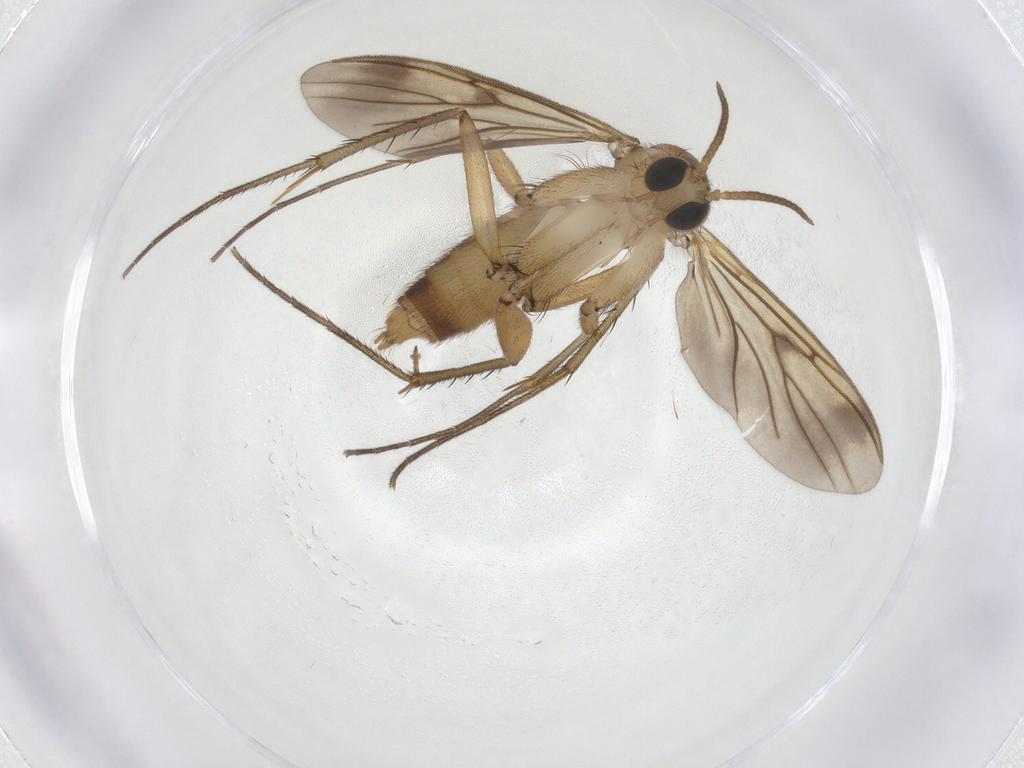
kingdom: Animalia
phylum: Arthropoda
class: Insecta
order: Diptera
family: Mycetophilidae
